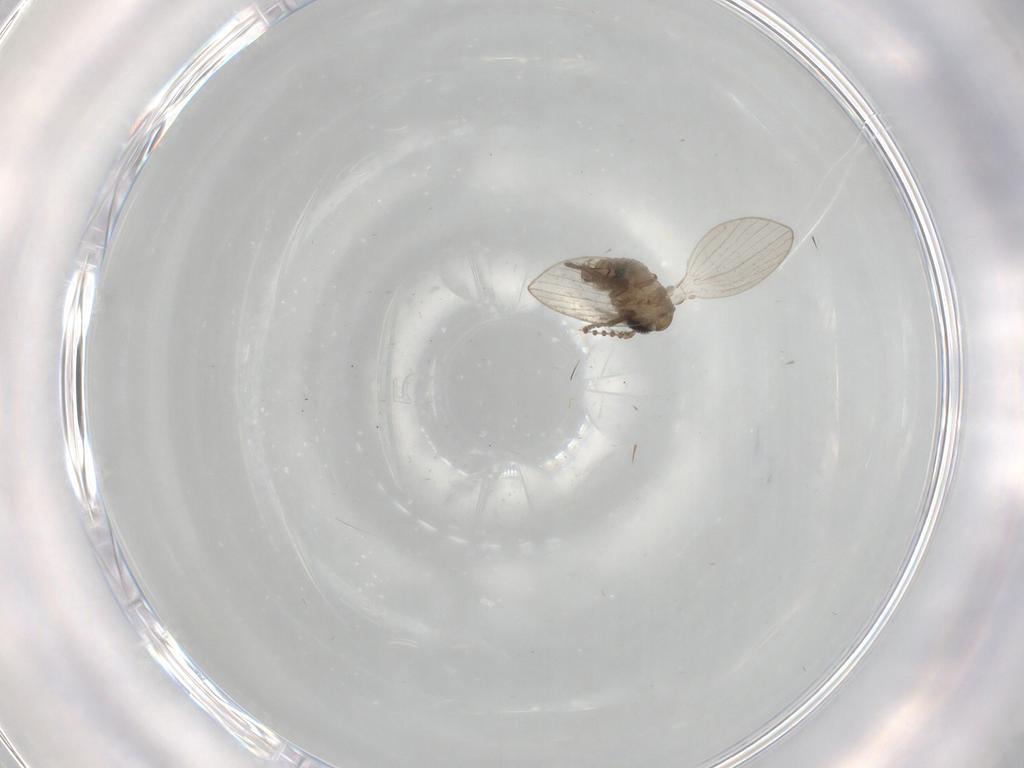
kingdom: Animalia
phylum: Arthropoda
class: Insecta
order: Diptera
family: Psychodidae
